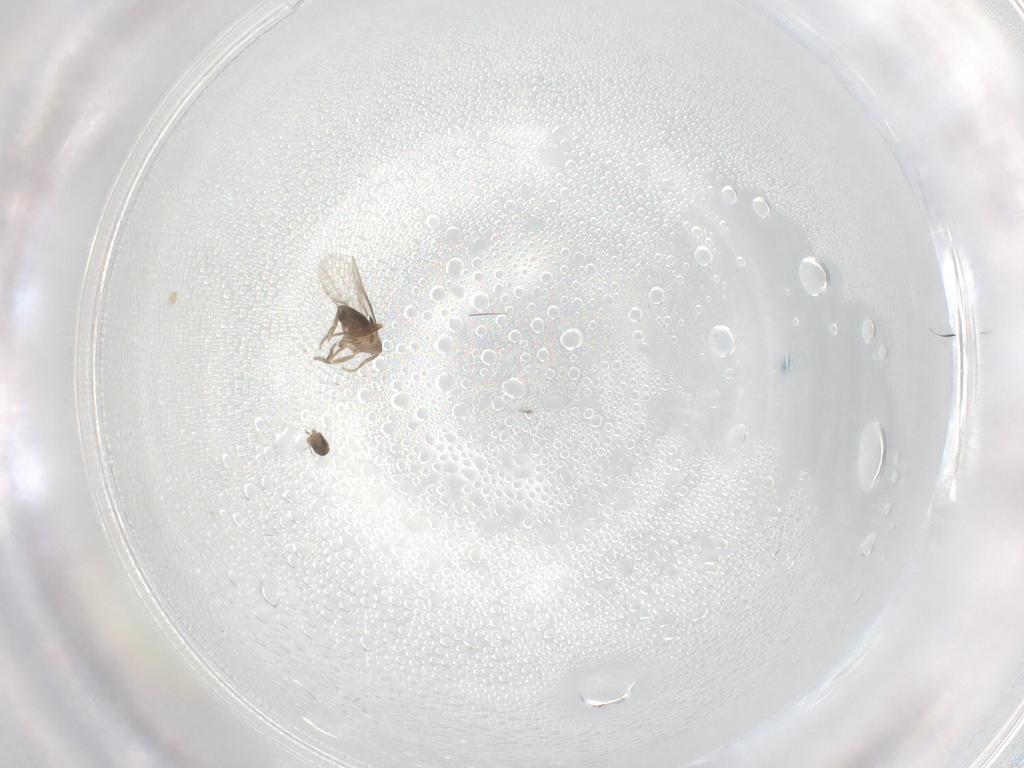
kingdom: Animalia
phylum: Arthropoda
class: Insecta
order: Diptera
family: Phoridae
